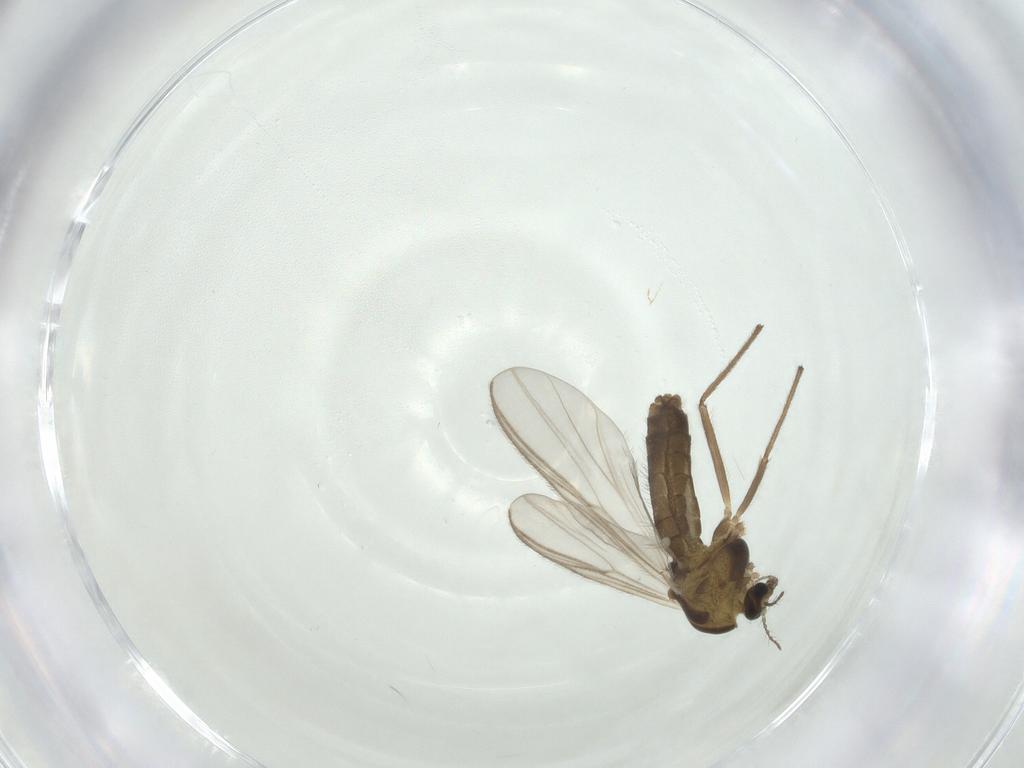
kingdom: Animalia
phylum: Arthropoda
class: Insecta
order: Diptera
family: Chironomidae
